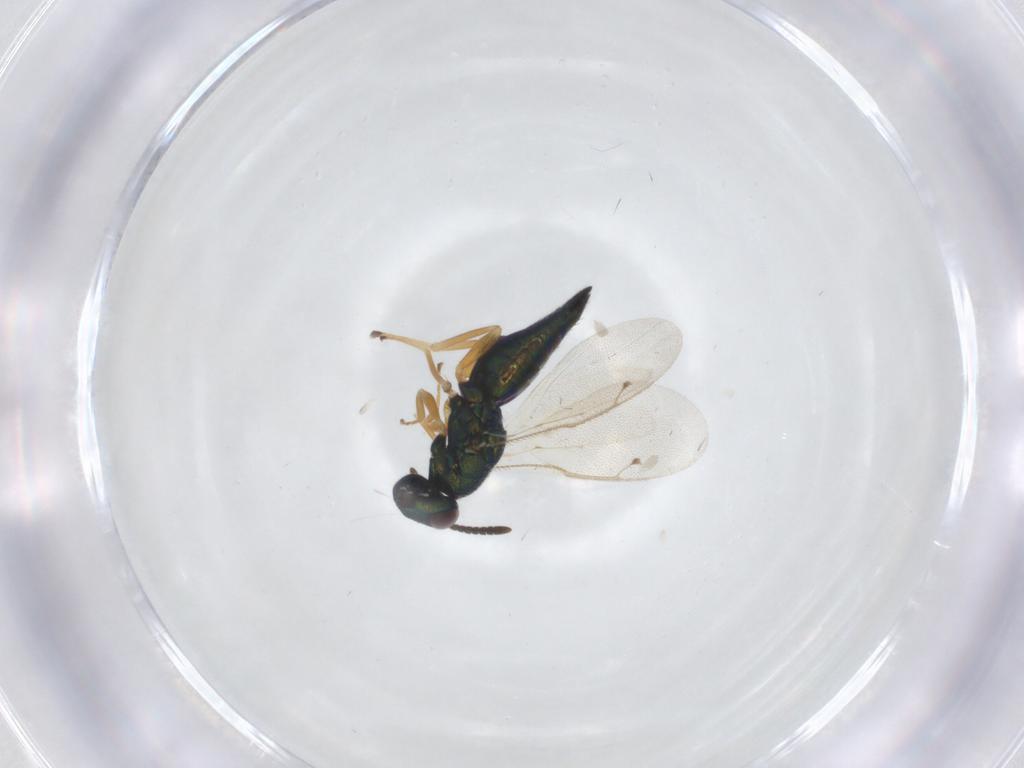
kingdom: Animalia
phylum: Arthropoda
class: Insecta
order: Hymenoptera
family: Pteromalidae
